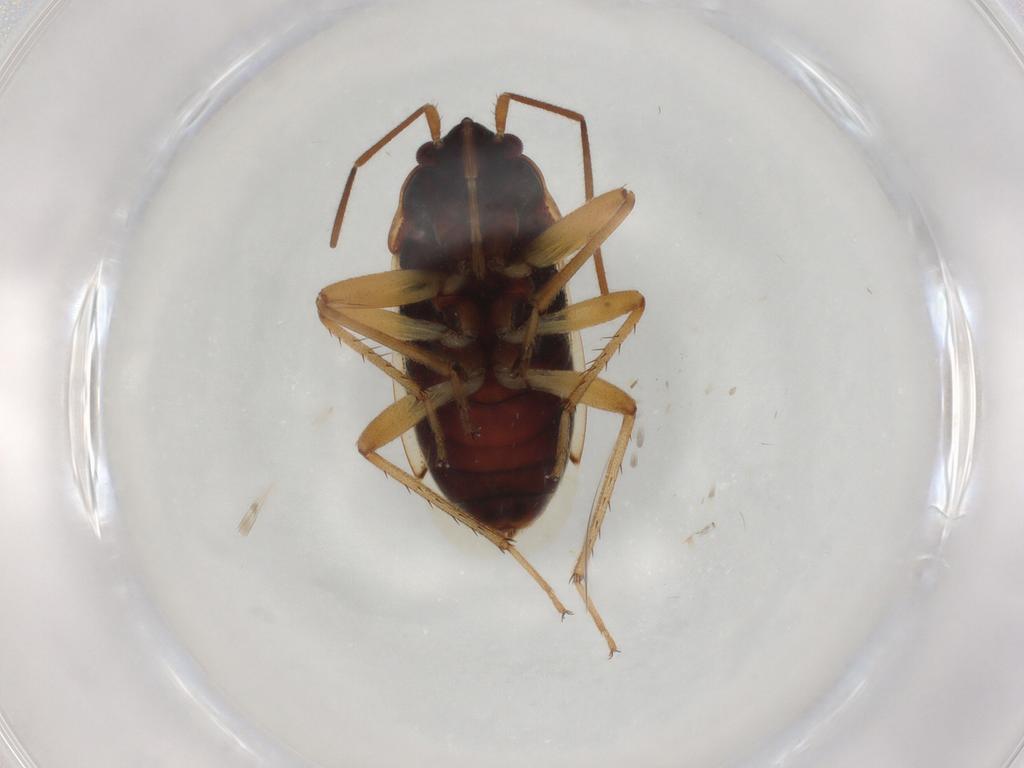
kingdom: Animalia
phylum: Arthropoda
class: Insecta
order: Hemiptera
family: Rhyparochromidae
